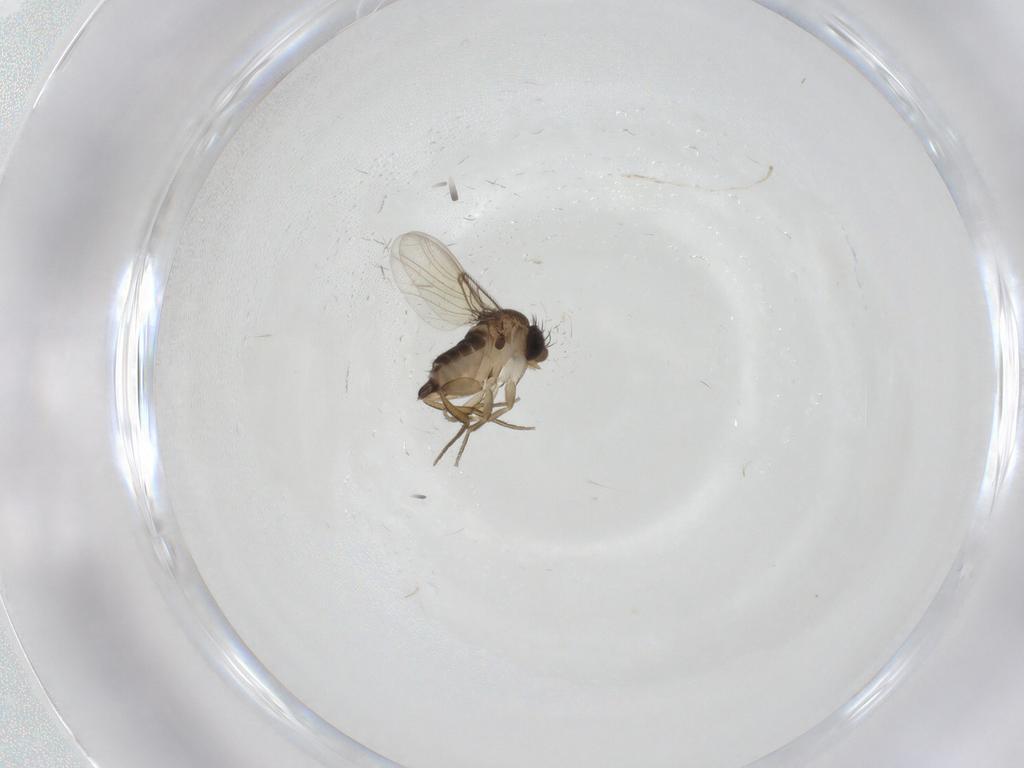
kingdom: Animalia
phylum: Arthropoda
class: Insecta
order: Diptera
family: Cecidomyiidae
